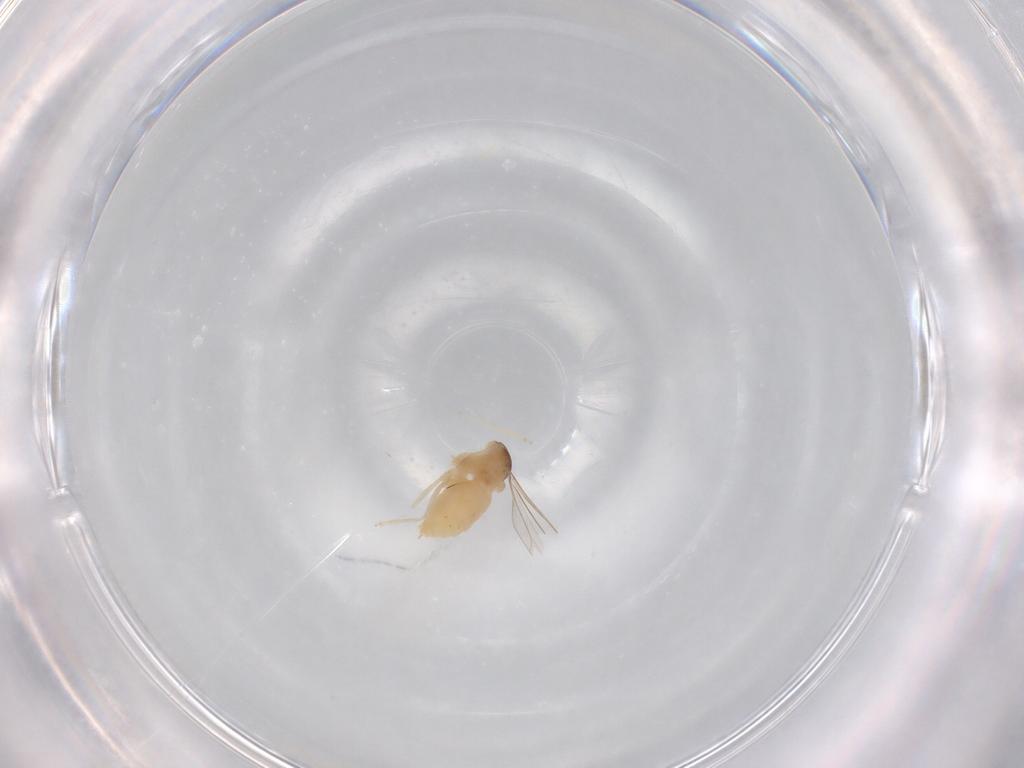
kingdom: Animalia
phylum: Arthropoda
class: Insecta
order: Diptera
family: Cecidomyiidae
